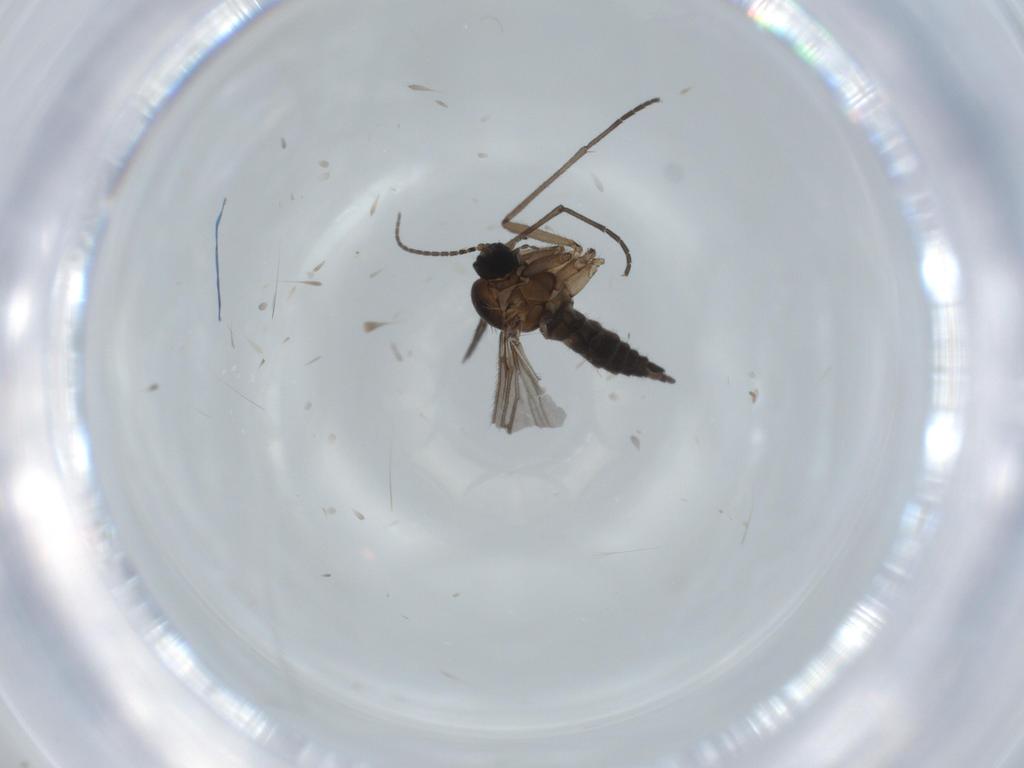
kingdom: Animalia
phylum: Arthropoda
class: Insecta
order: Diptera
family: Sciaridae
